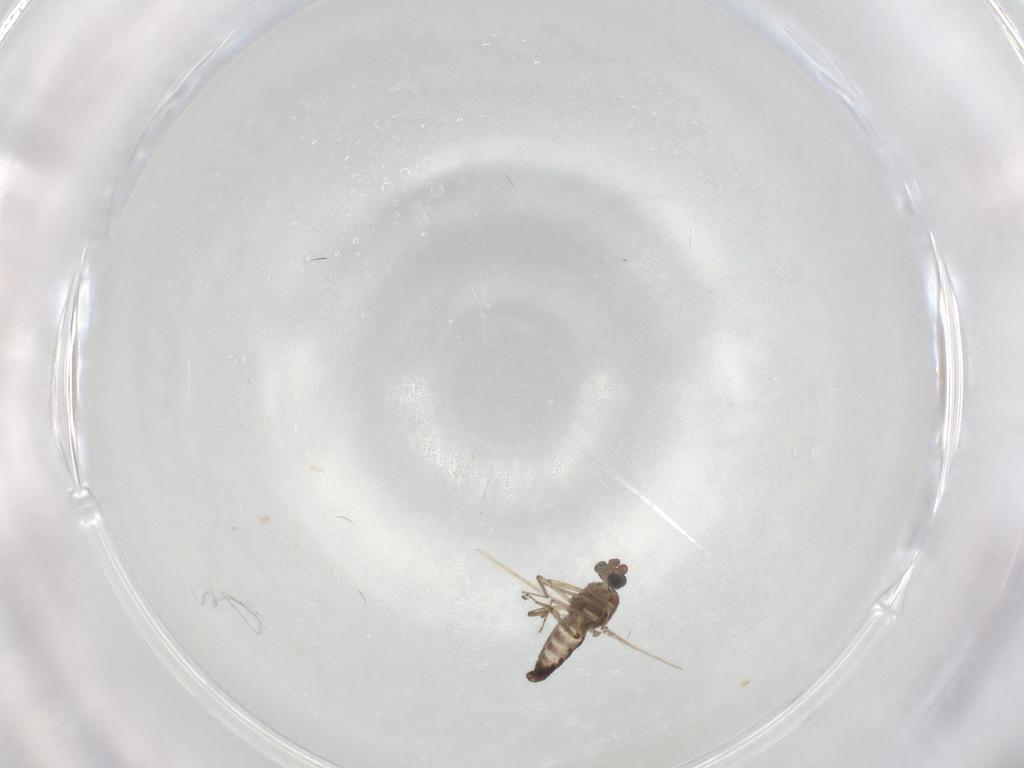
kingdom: Animalia
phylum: Arthropoda
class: Insecta
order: Diptera
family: Ceratopogonidae
